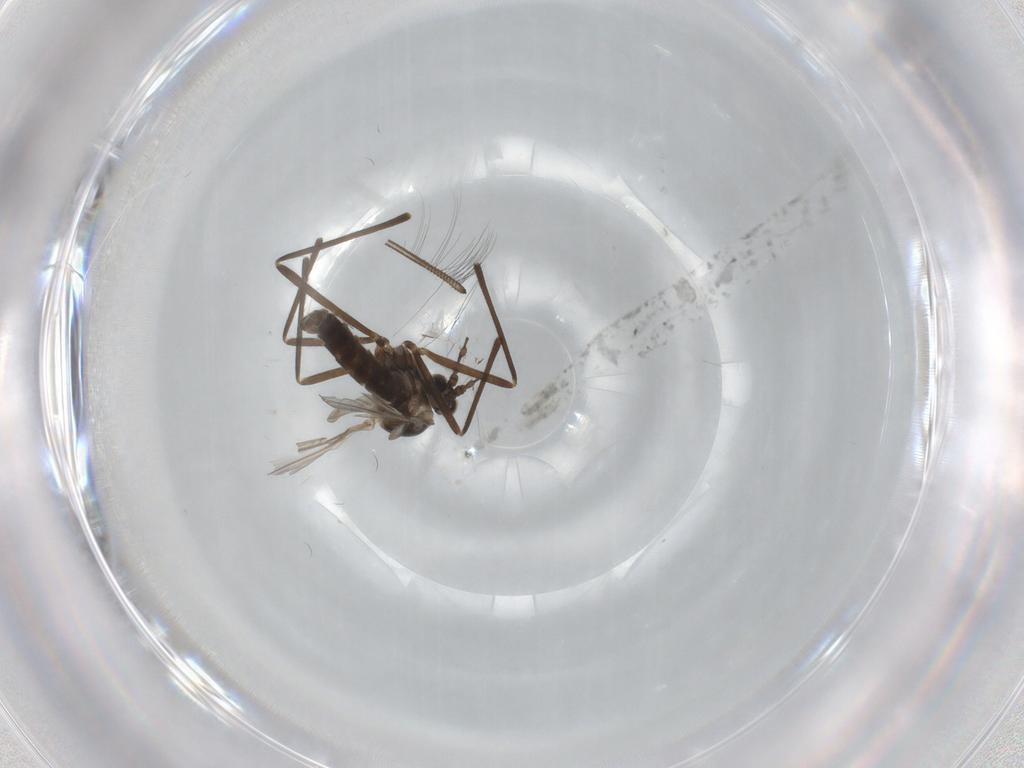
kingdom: Animalia
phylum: Arthropoda
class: Insecta
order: Diptera
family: Cecidomyiidae
